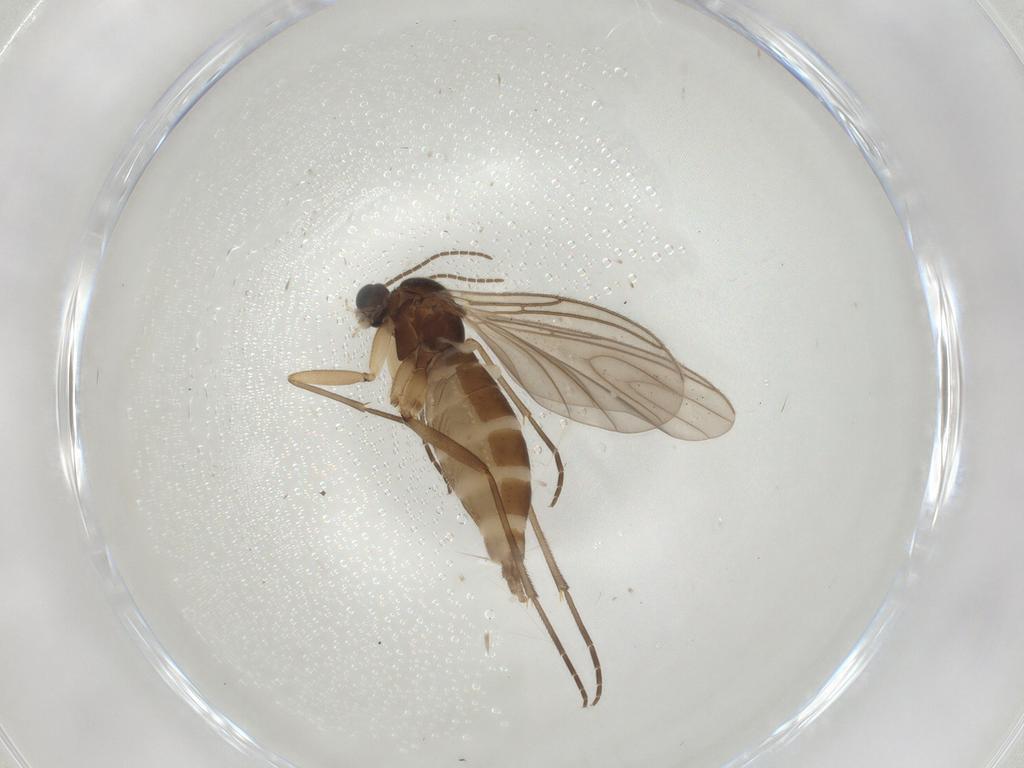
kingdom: Animalia
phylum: Arthropoda
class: Insecta
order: Diptera
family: Sciaridae
